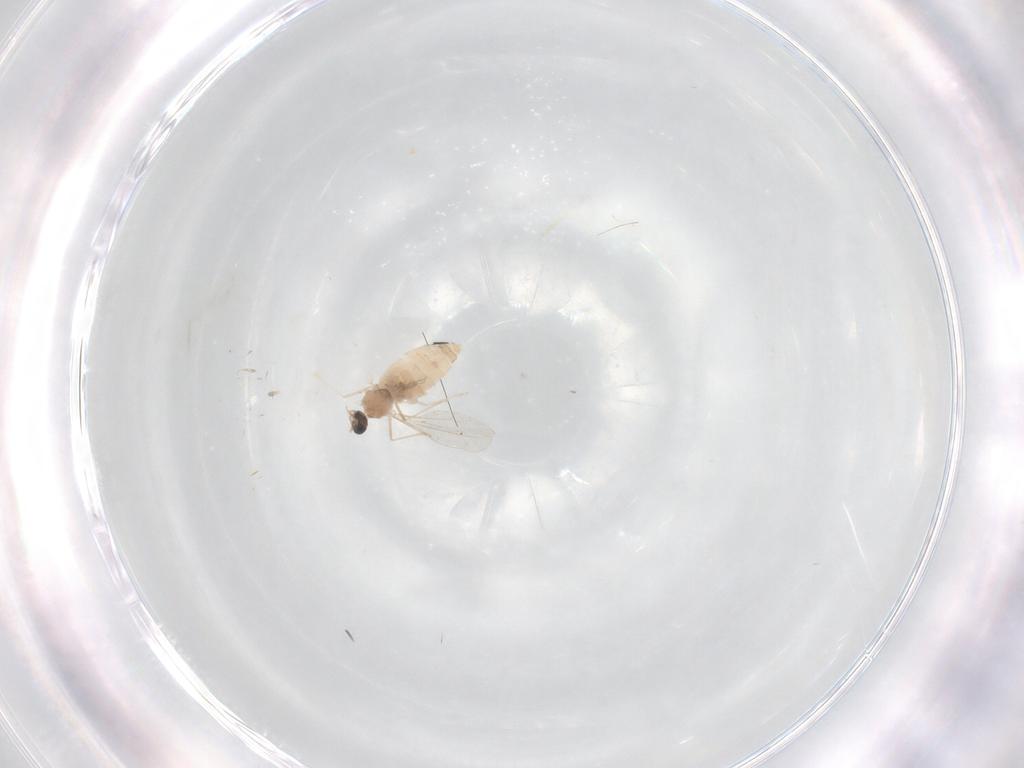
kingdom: Animalia
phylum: Arthropoda
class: Insecta
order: Diptera
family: Cecidomyiidae
